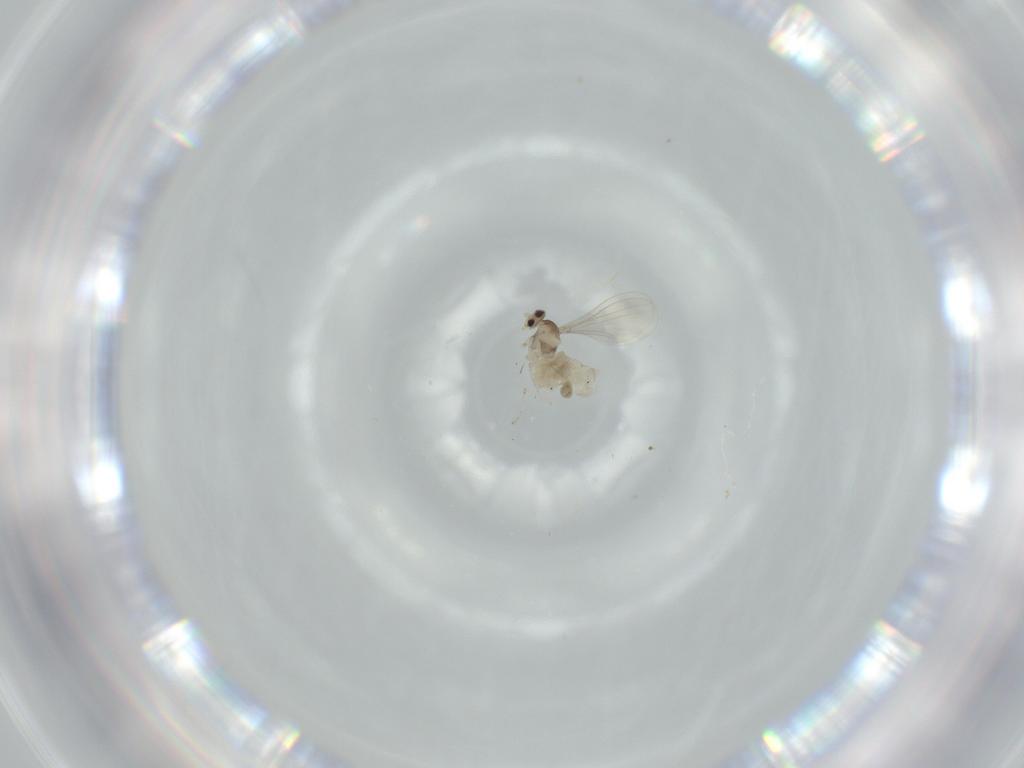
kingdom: Animalia
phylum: Arthropoda
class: Insecta
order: Diptera
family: Cecidomyiidae
